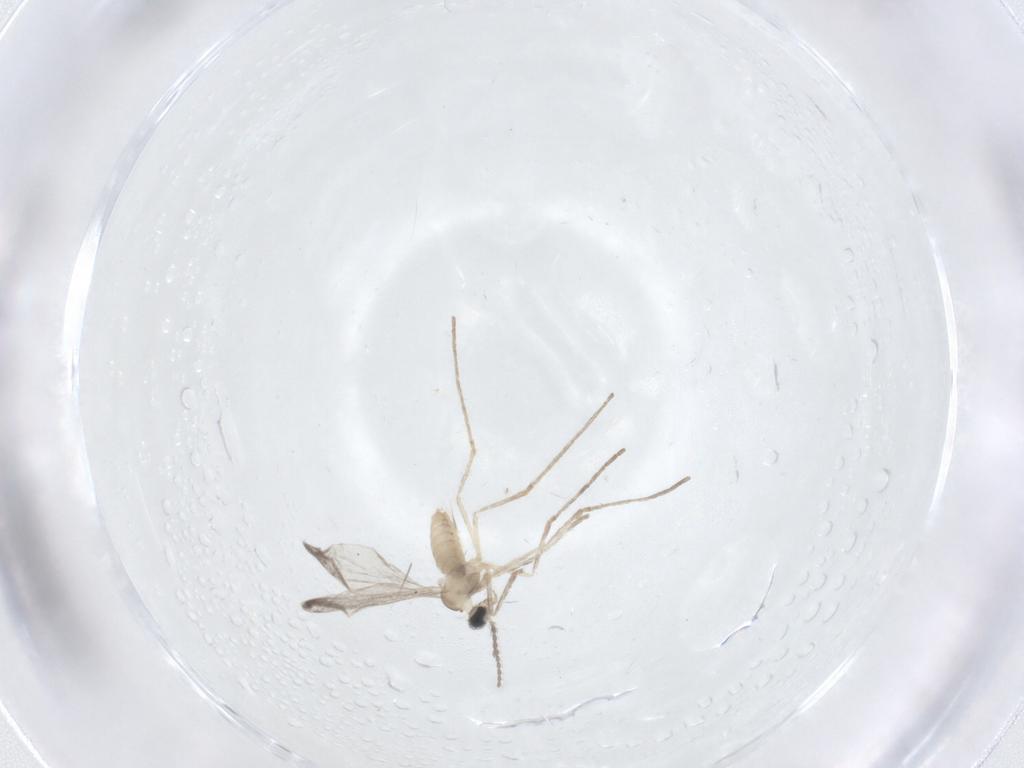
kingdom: Animalia
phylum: Arthropoda
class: Insecta
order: Diptera
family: Cecidomyiidae
